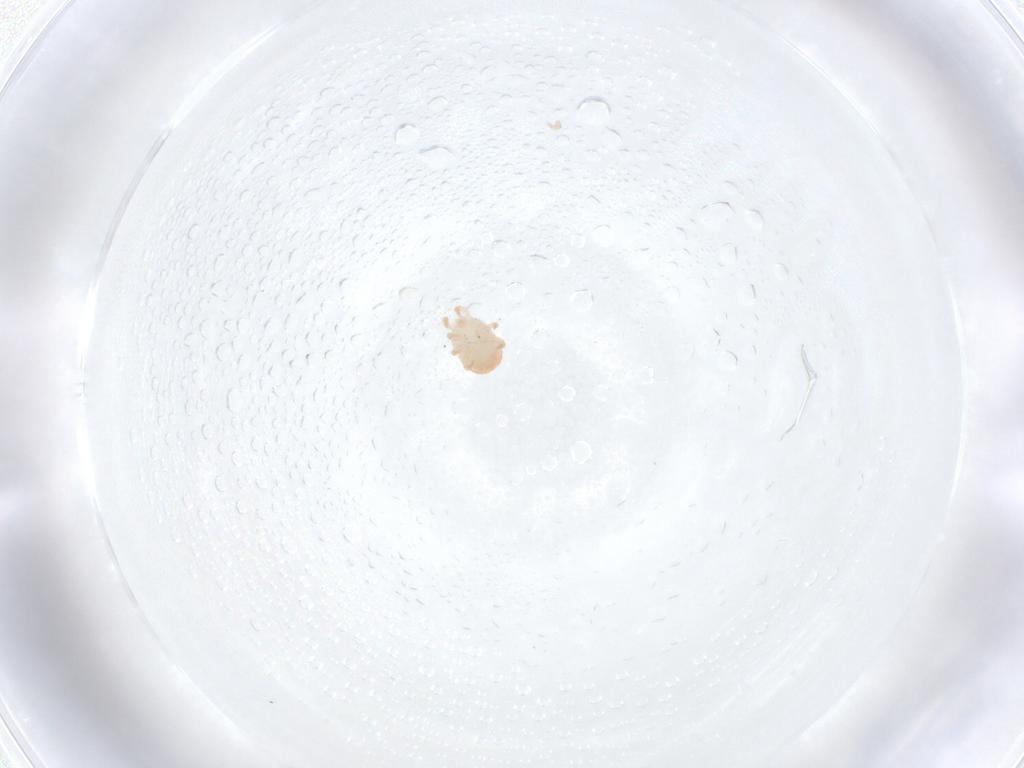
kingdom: Animalia
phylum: Arthropoda
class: Arachnida
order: Mesostigmata
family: Zerconidae
